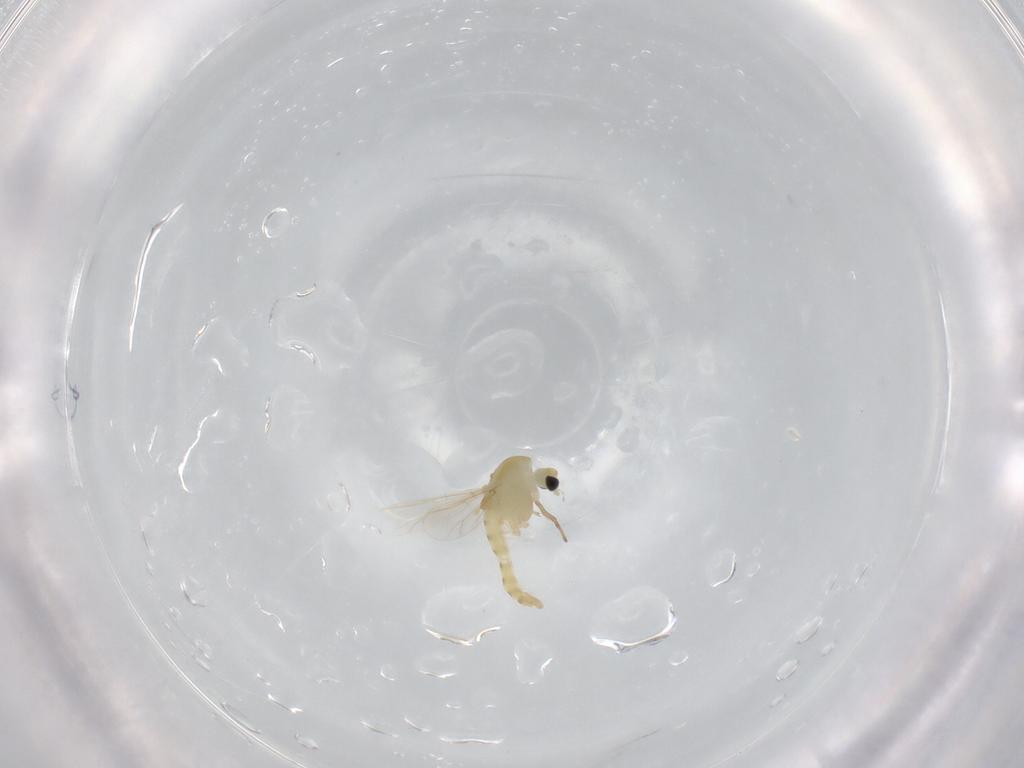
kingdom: Animalia
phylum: Arthropoda
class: Insecta
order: Diptera
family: Chironomidae
